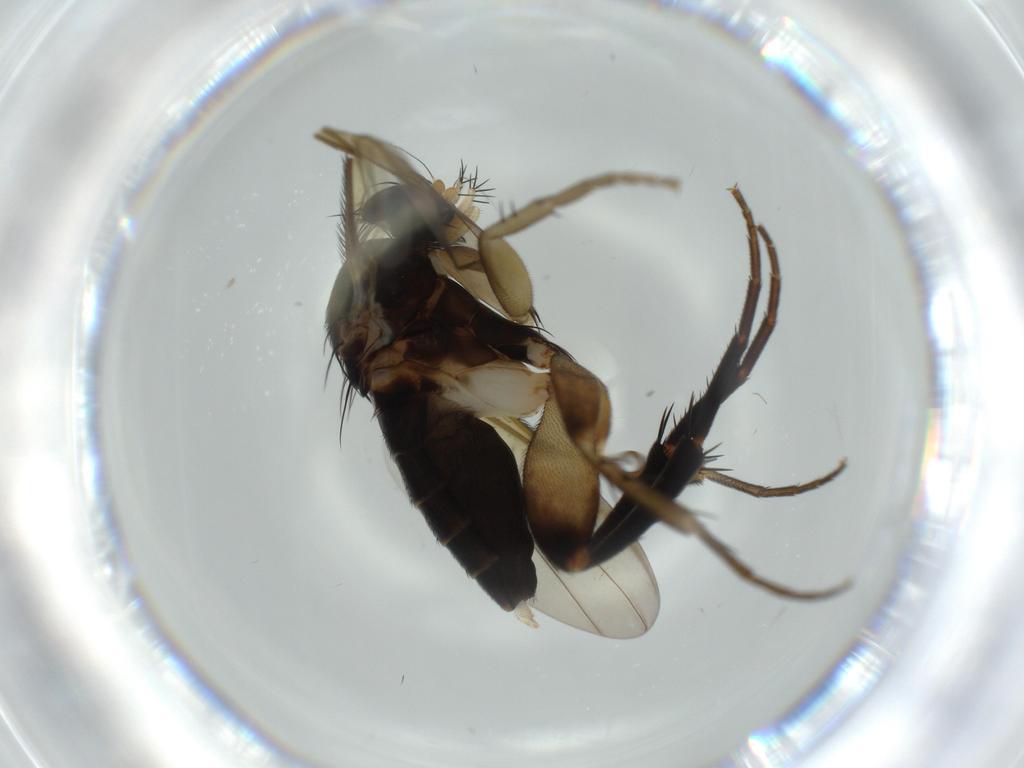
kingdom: Animalia
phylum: Arthropoda
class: Insecta
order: Diptera
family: Phoridae
